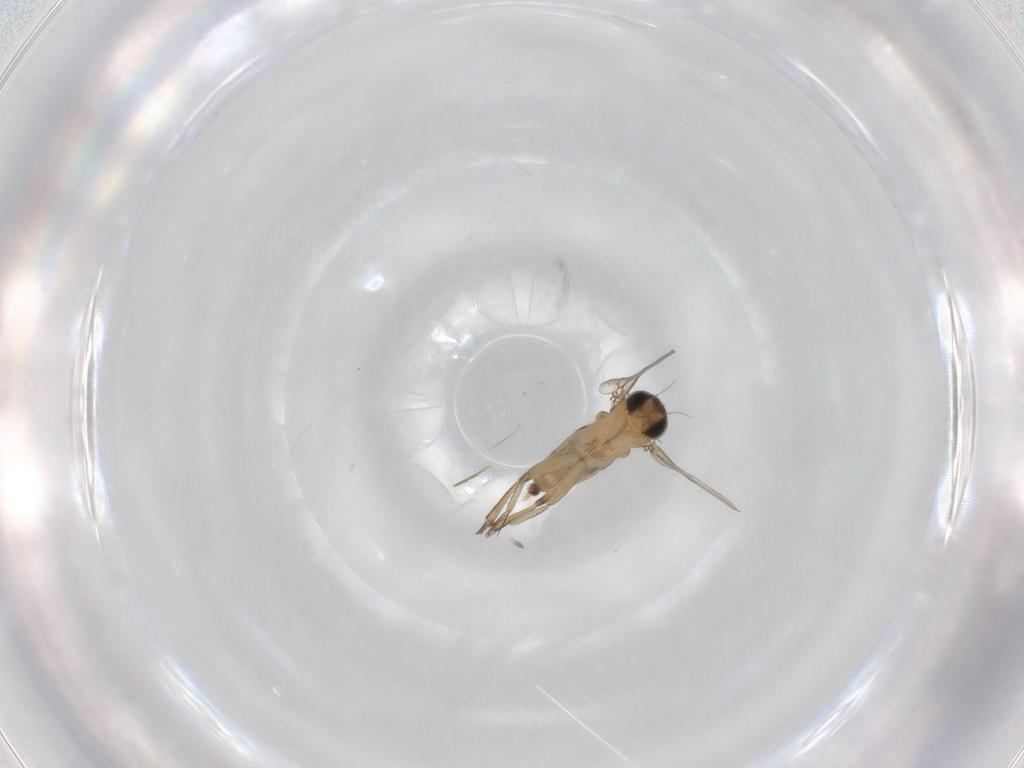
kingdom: Animalia
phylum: Arthropoda
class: Insecta
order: Diptera
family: Phoridae
